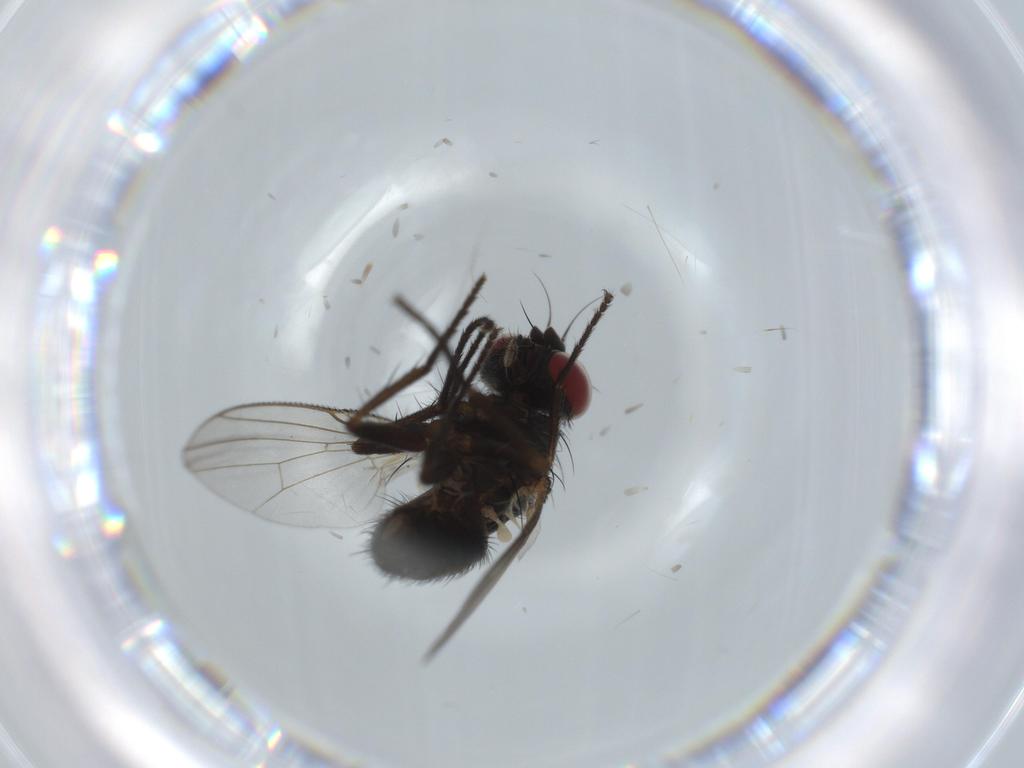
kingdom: Animalia
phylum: Arthropoda
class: Insecta
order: Diptera
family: Muscidae
